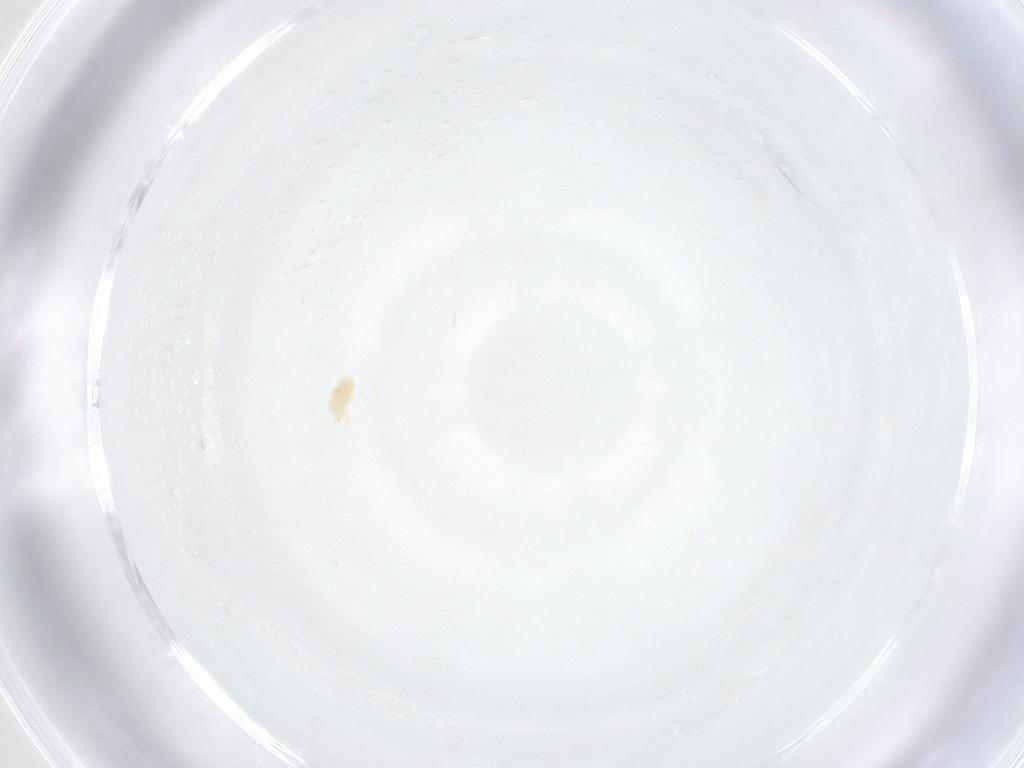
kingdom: Animalia
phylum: Arthropoda
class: Arachnida
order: Trombidiformes
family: Tetranychidae
